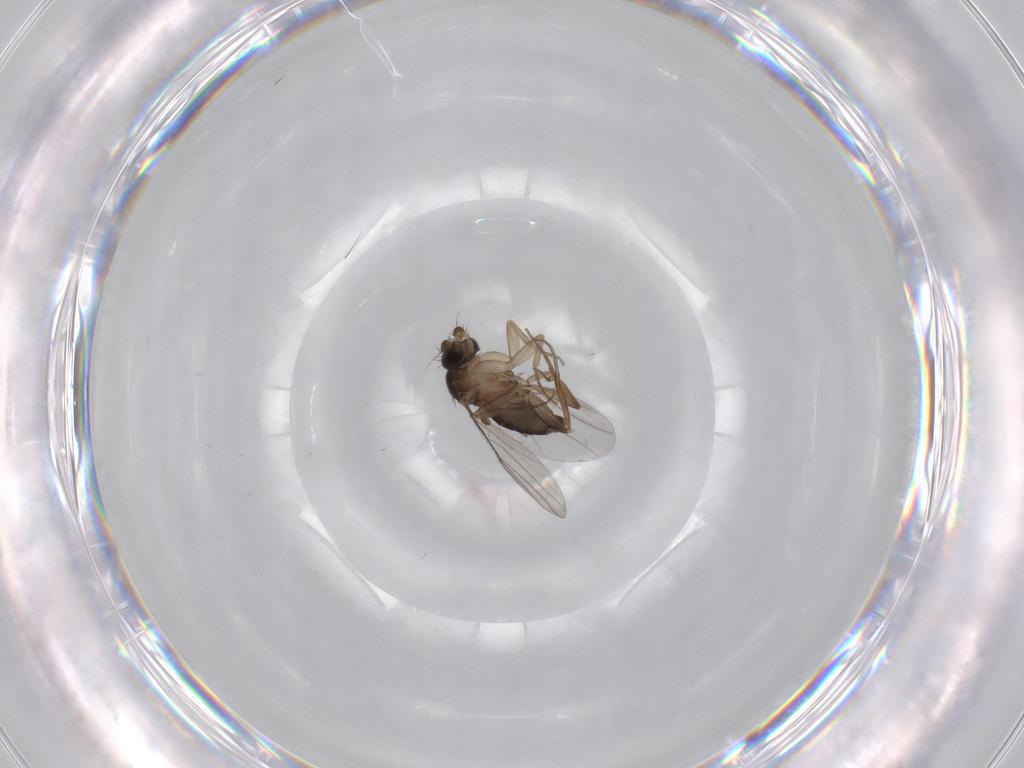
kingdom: Animalia
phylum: Arthropoda
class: Insecta
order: Diptera
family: Phoridae
